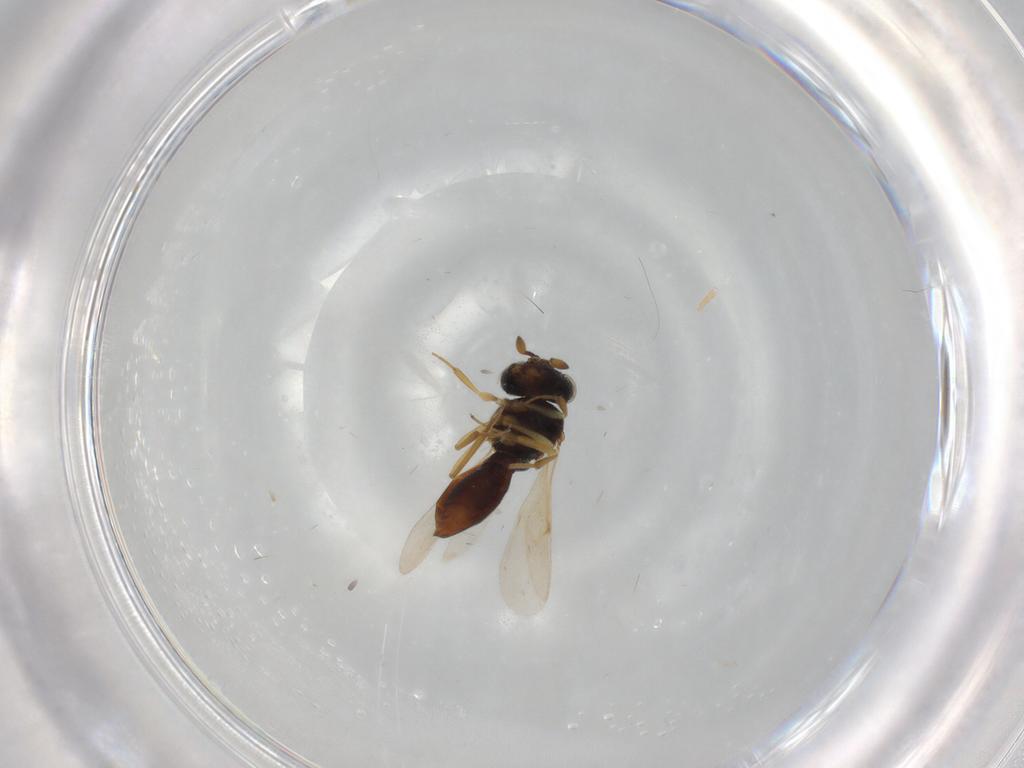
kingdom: Animalia
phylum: Arthropoda
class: Insecta
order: Hymenoptera
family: Scelionidae
